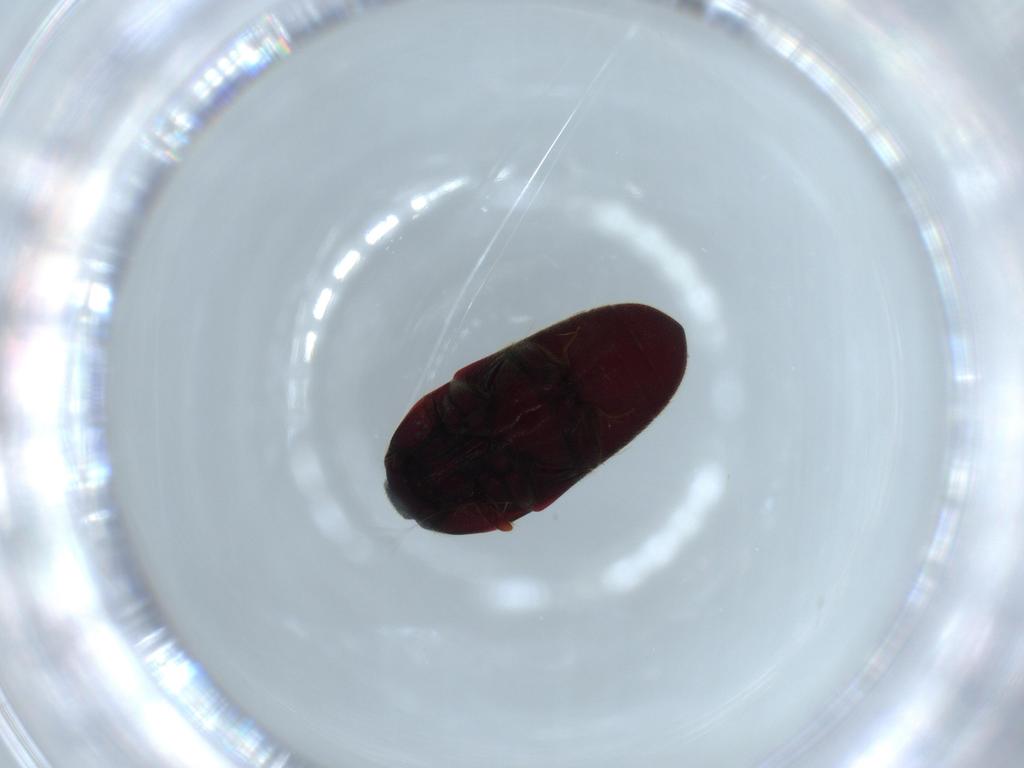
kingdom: Animalia
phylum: Arthropoda
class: Insecta
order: Coleoptera
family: Throscidae
